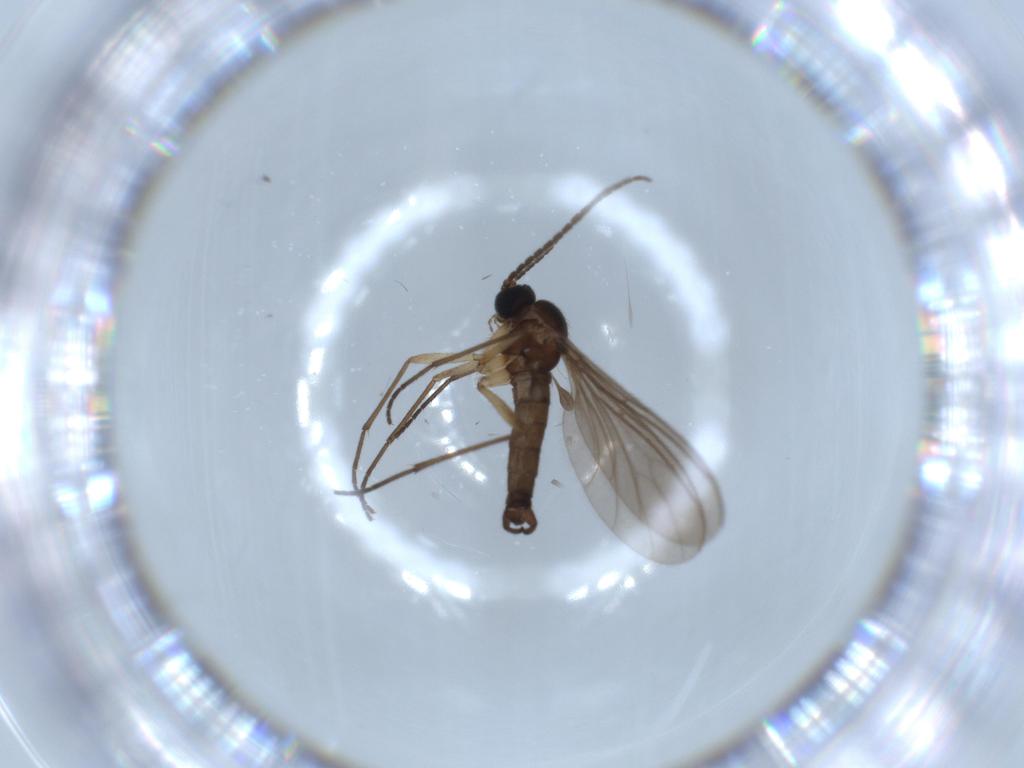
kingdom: Animalia
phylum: Arthropoda
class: Insecta
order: Diptera
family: Sciaridae
